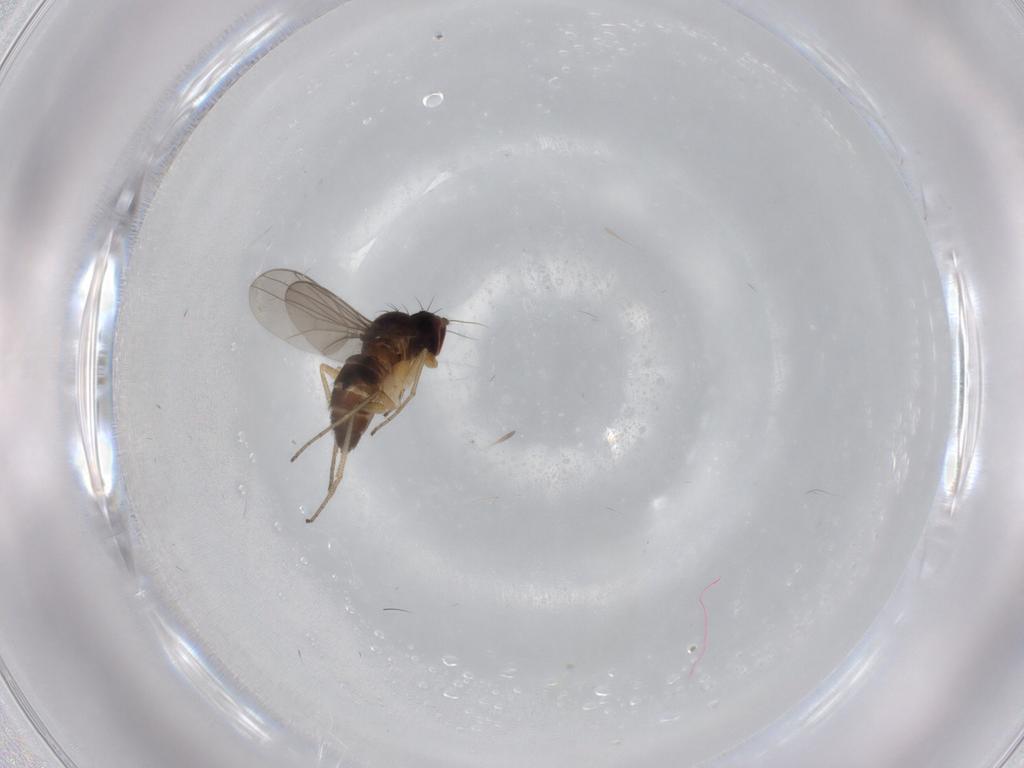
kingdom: Animalia
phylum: Arthropoda
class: Insecta
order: Diptera
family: Dolichopodidae
